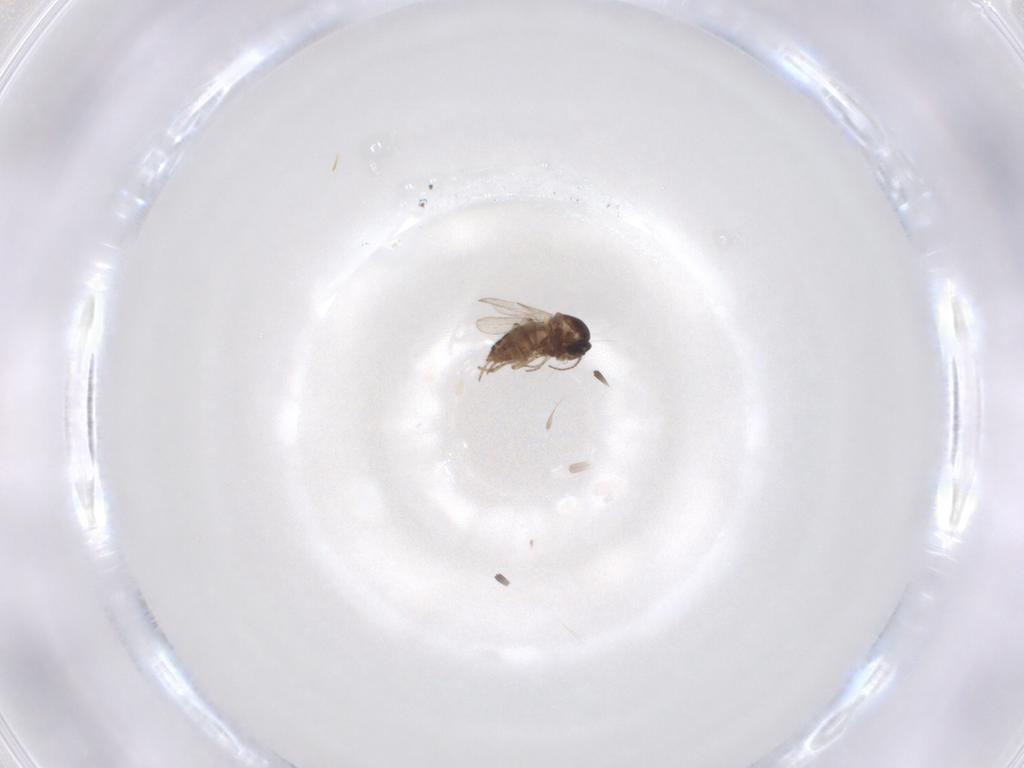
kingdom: Animalia
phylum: Arthropoda
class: Insecta
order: Diptera
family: Ceratopogonidae
